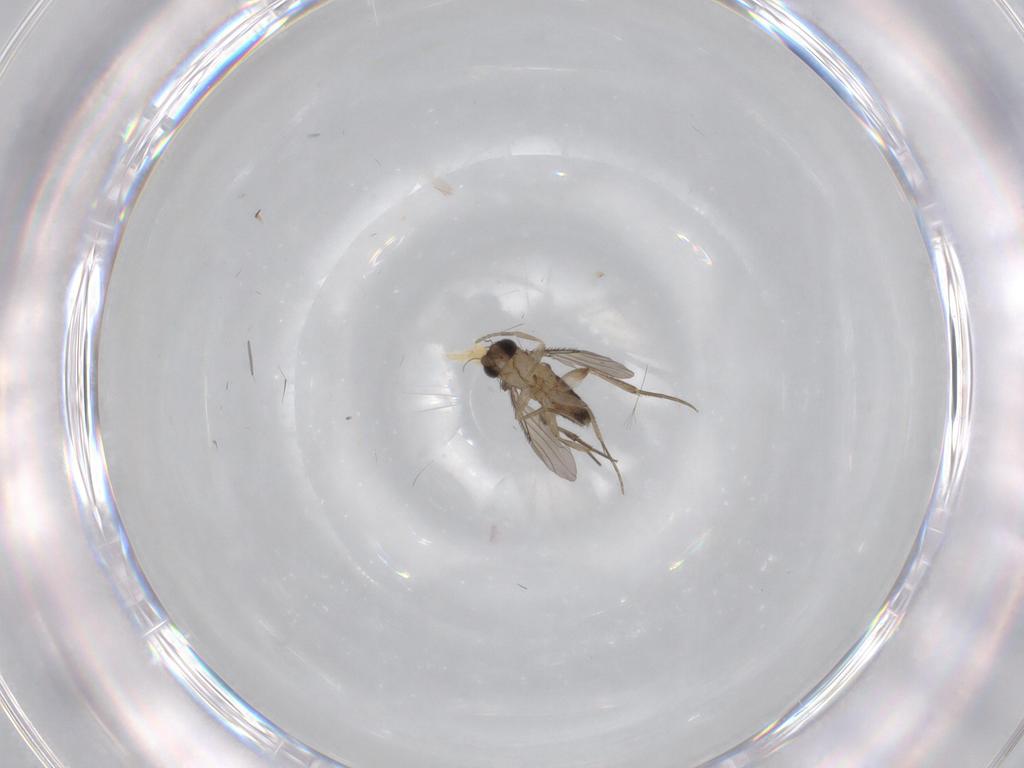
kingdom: Animalia
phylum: Arthropoda
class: Insecta
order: Diptera
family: Phoridae
